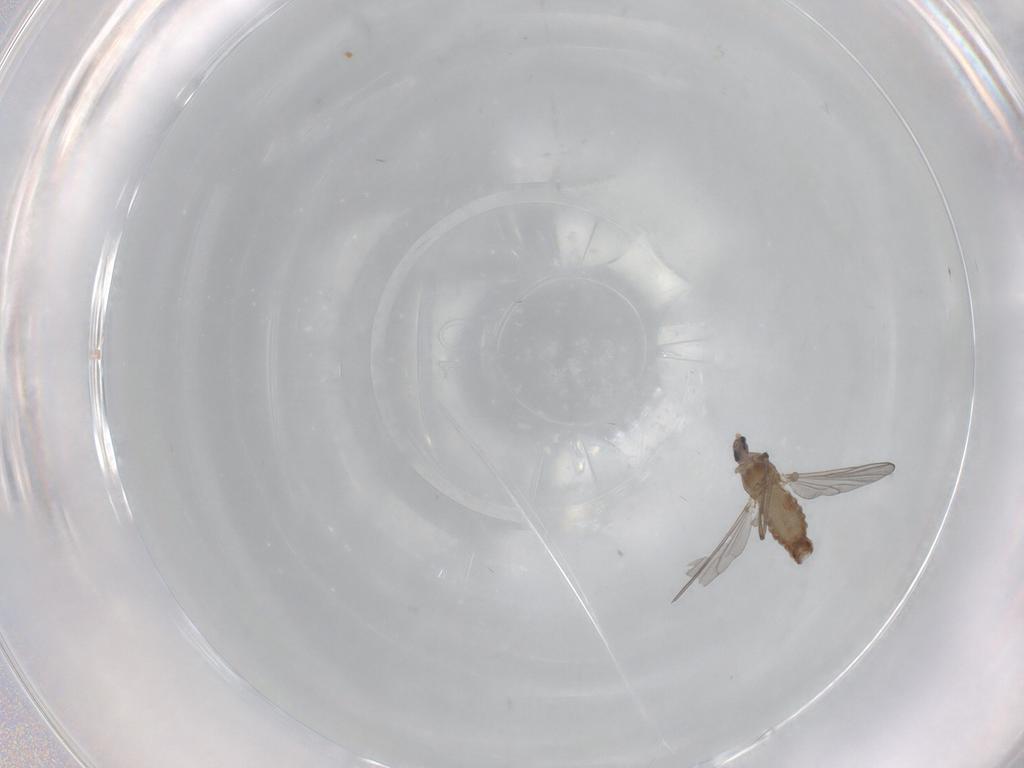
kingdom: Animalia
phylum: Arthropoda
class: Insecta
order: Diptera
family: Chironomidae
